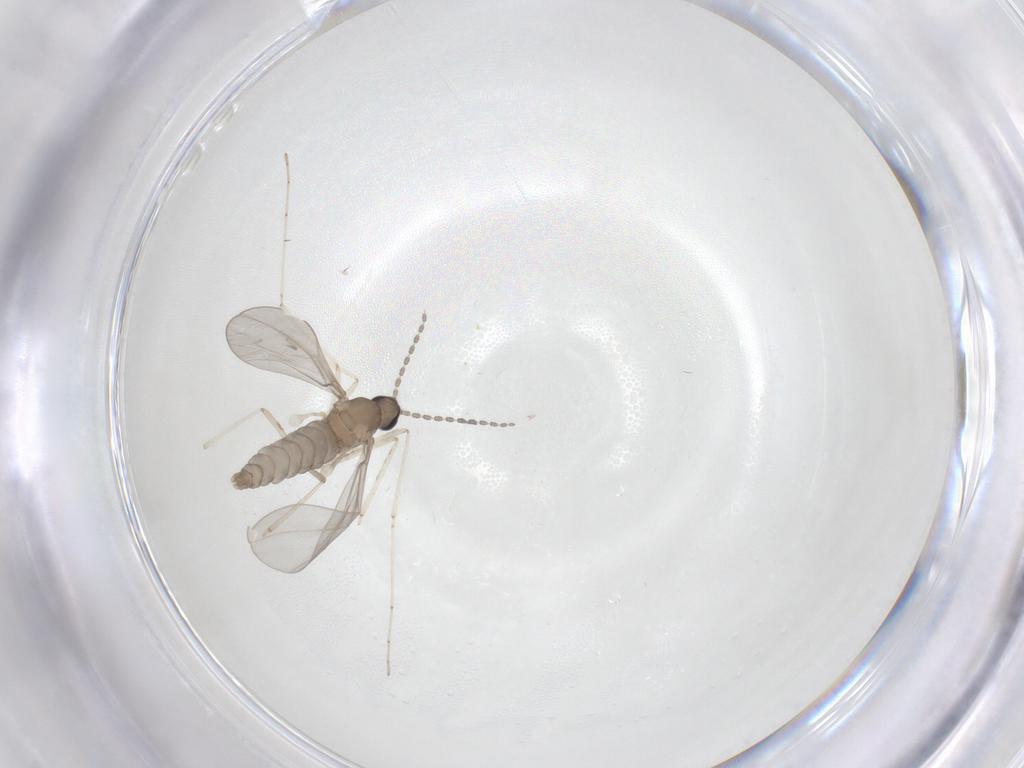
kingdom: Animalia
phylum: Arthropoda
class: Insecta
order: Diptera
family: Cecidomyiidae
